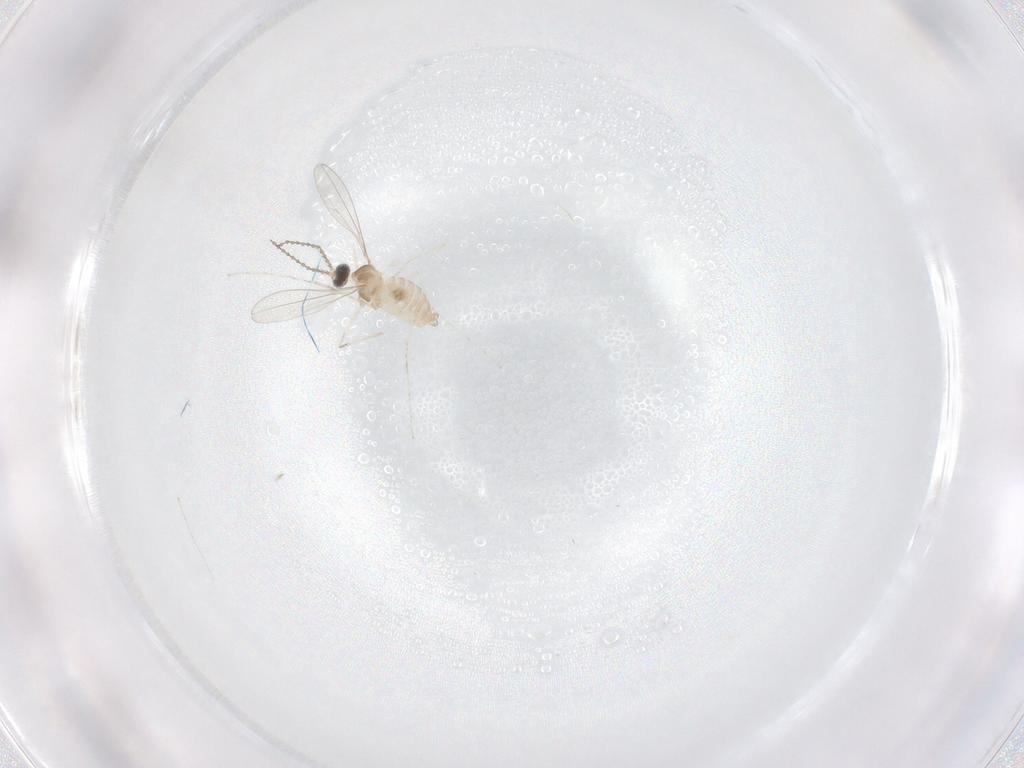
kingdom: Animalia
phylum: Arthropoda
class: Insecta
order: Diptera
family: Cecidomyiidae
